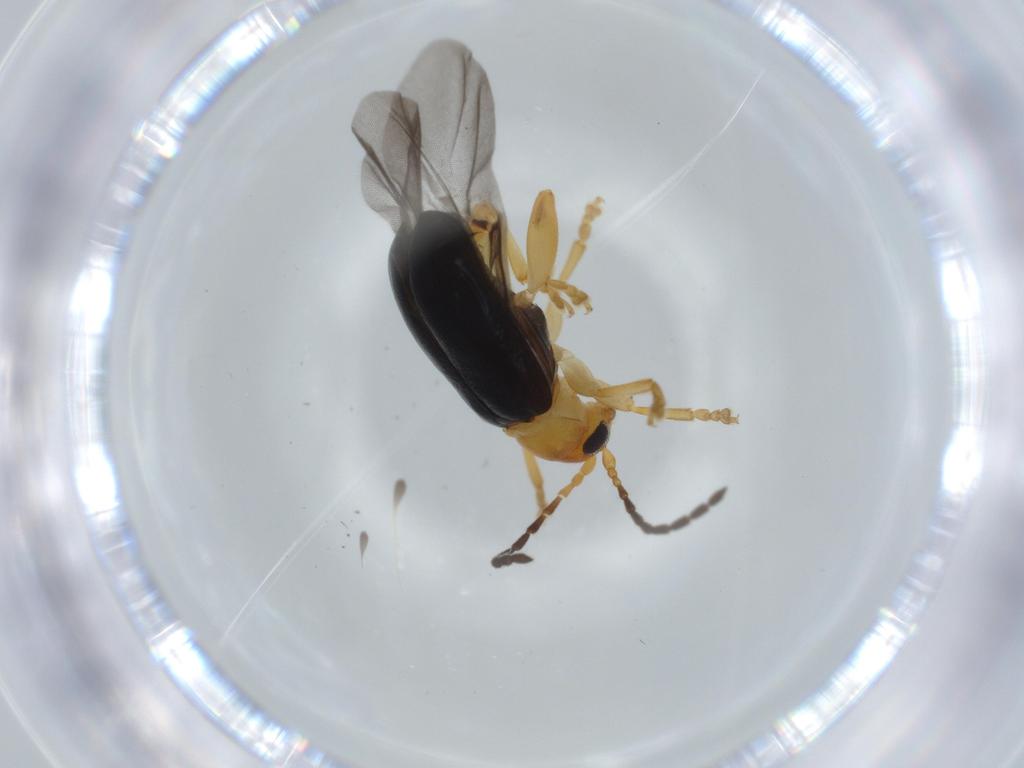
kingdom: Animalia
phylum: Arthropoda
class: Insecta
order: Coleoptera
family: Chrysomelidae
